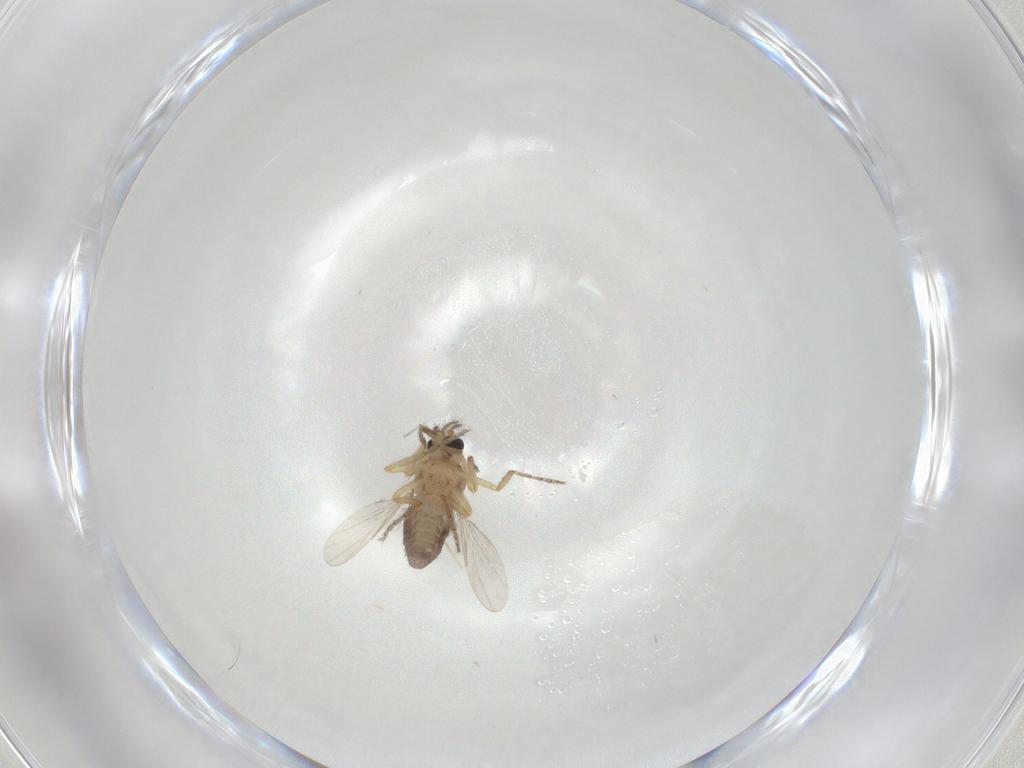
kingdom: Animalia
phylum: Arthropoda
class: Insecta
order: Diptera
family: Ceratopogonidae
